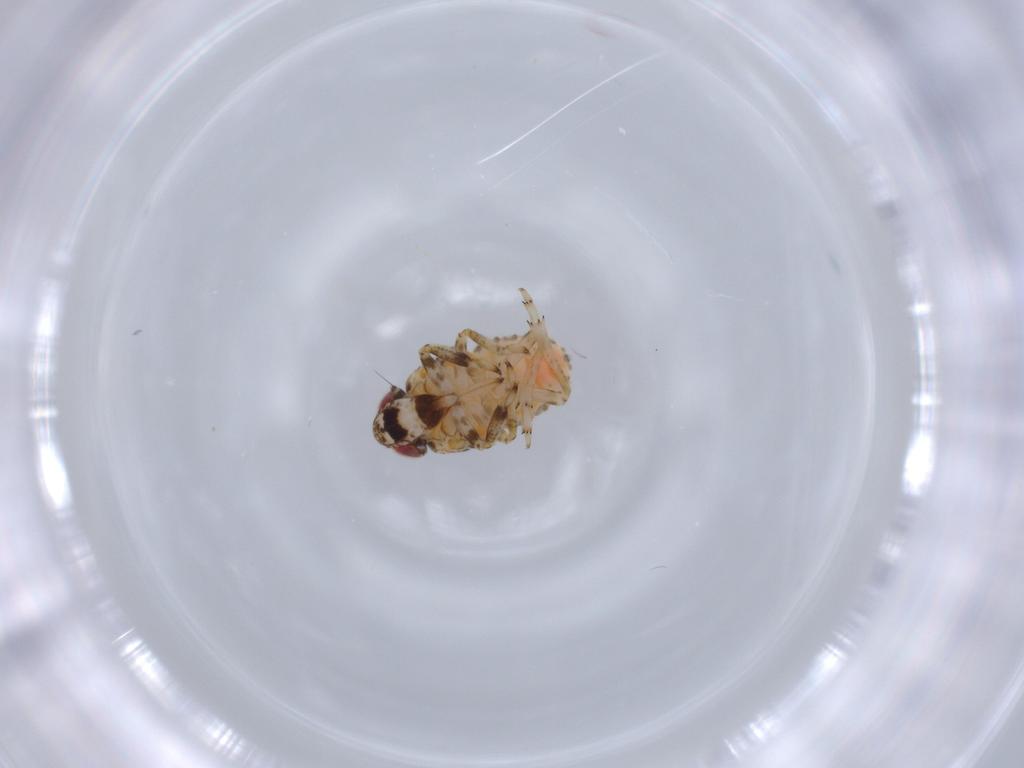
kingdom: Animalia
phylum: Arthropoda
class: Insecta
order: Hemiptera
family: Issidae
